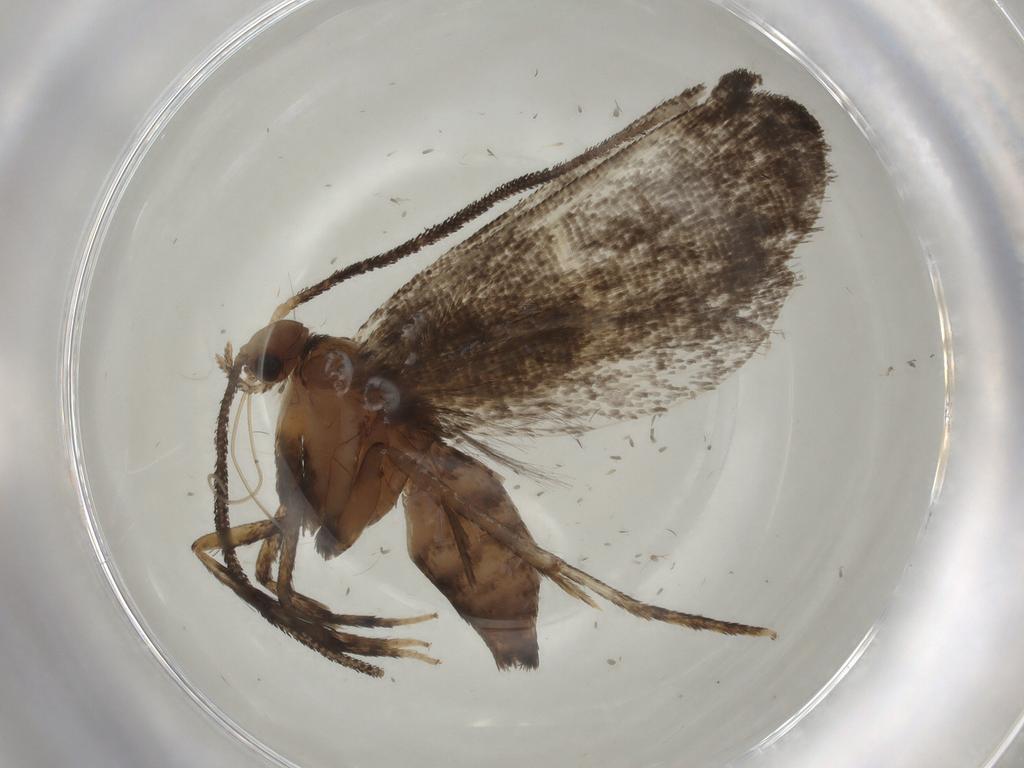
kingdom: Animalia
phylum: Arthropoda
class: Insecta
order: Lepidoptera
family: Choreutidae
